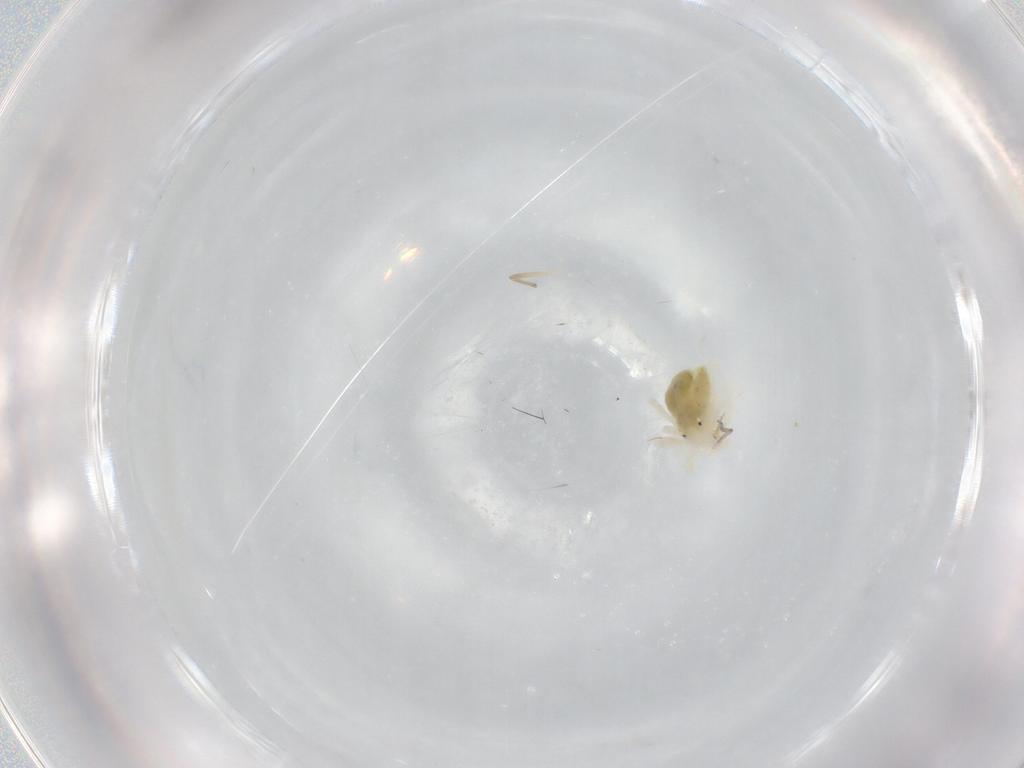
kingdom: Animalia
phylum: Arthropoda
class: Arachnida
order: Trombidiformes
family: Anystidae
